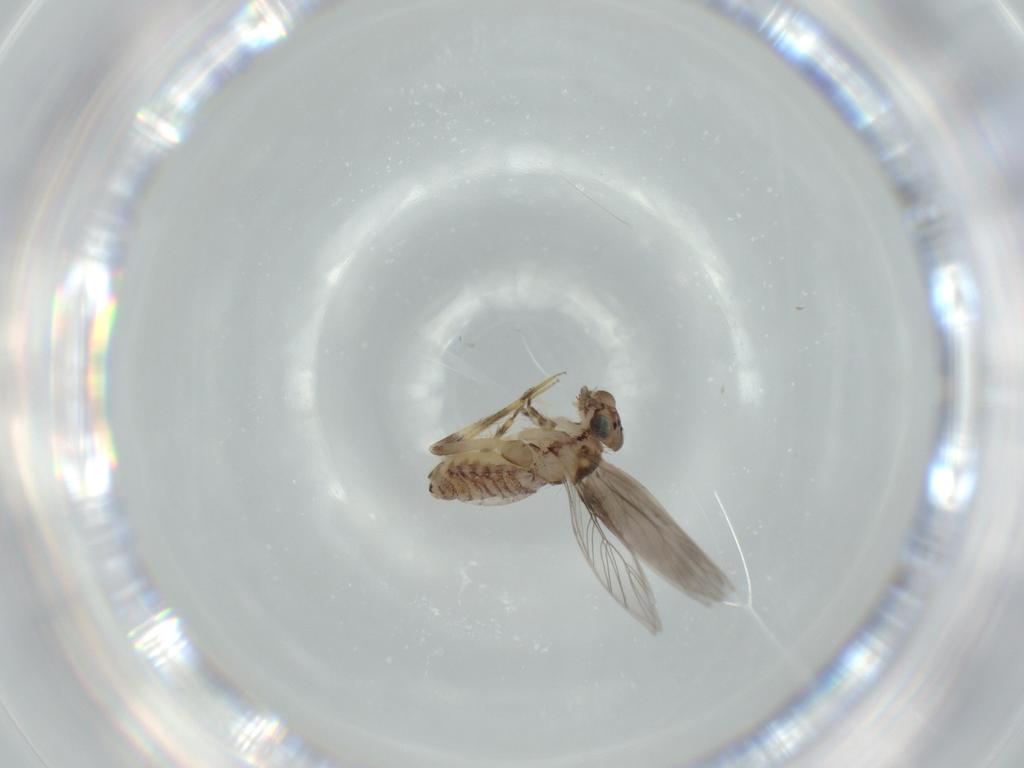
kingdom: Animalia
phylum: Arthropoda
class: Insecta
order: Psocodea
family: Lepidopsocidae
